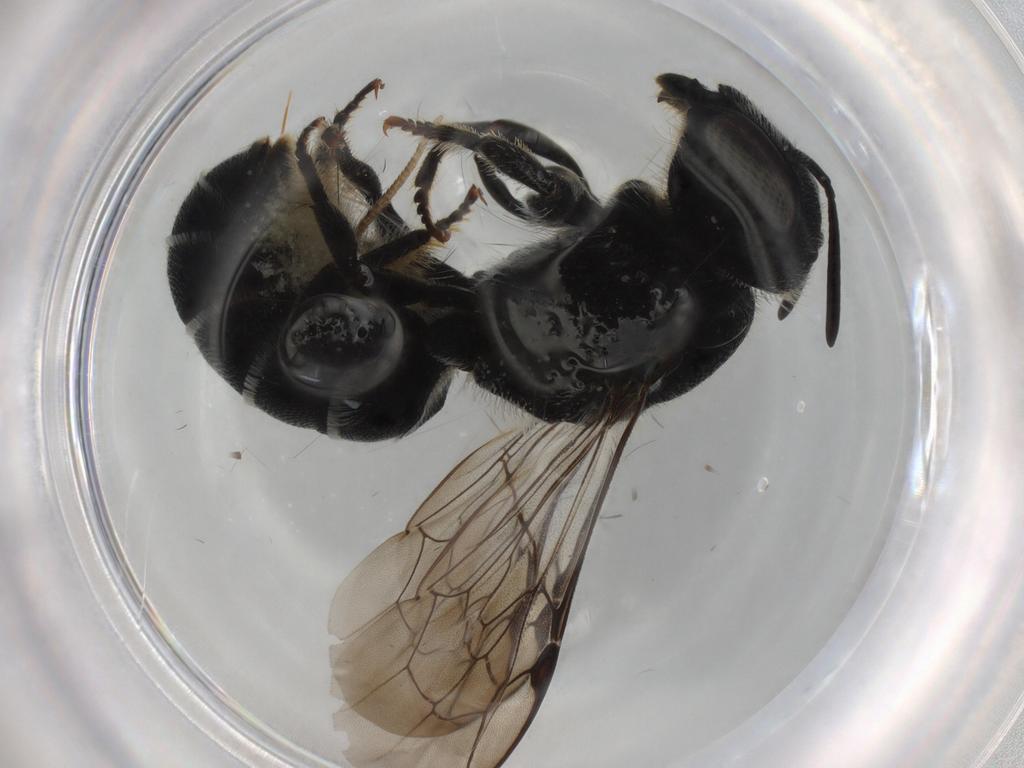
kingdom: Animalia
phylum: Arthropoda
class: Insecta
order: Hymenoptera
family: Megachilidae
